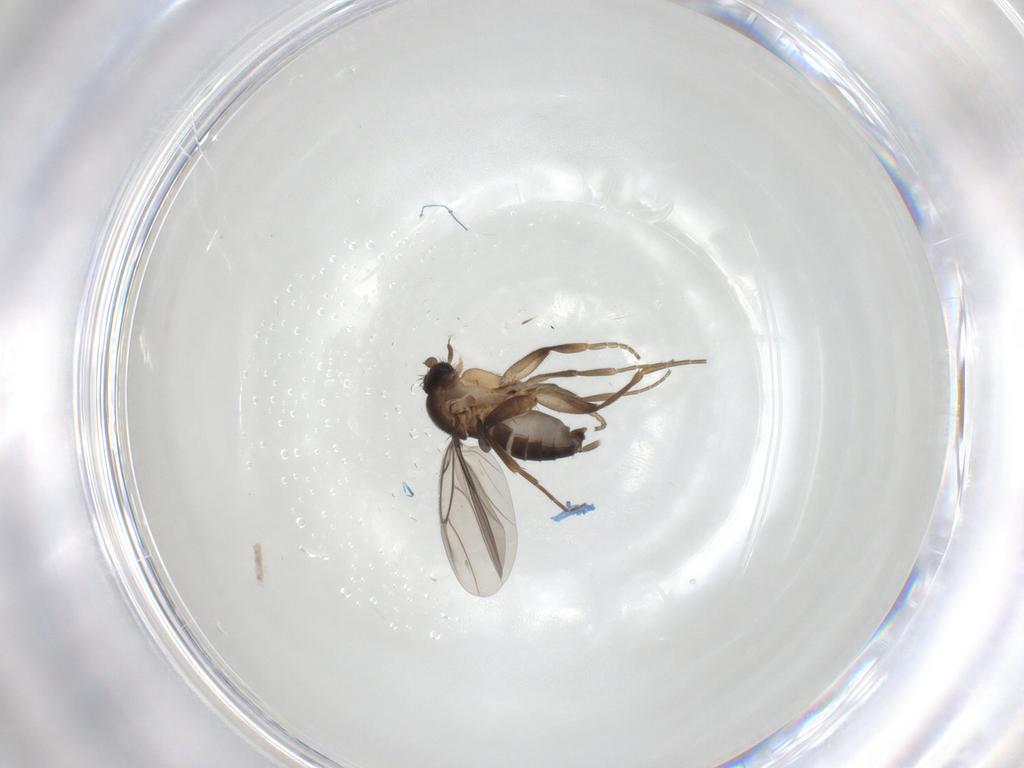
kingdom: Animalia
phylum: Arthropoda
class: Insecta
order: Diptera
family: Phoridae
